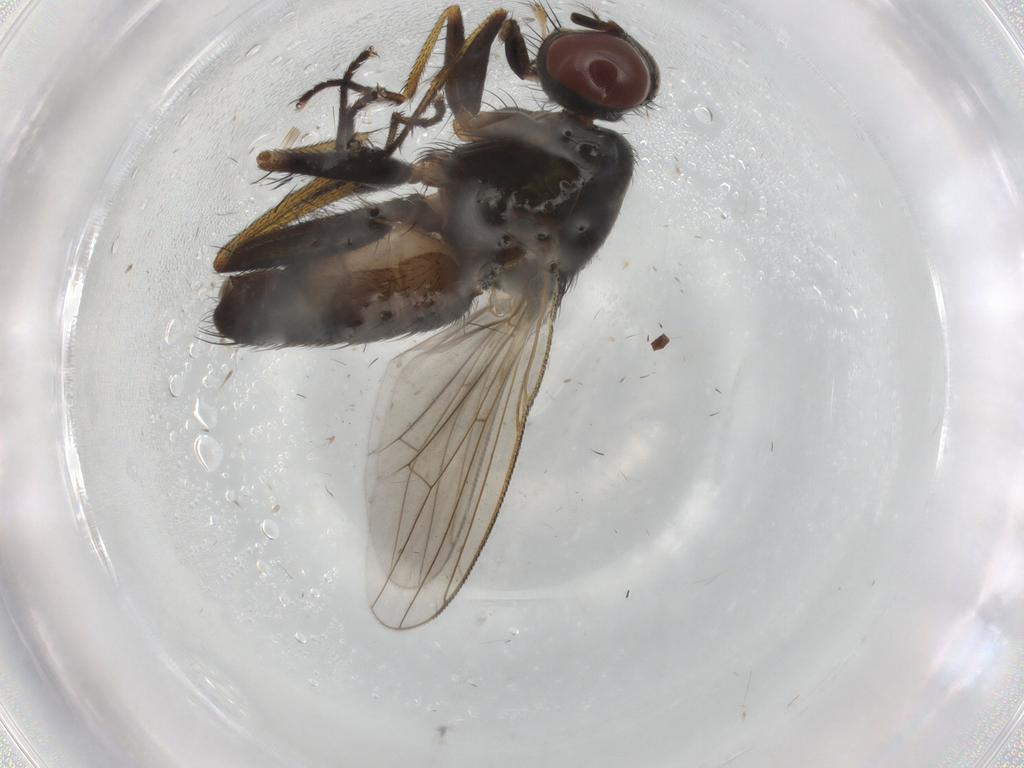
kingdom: Animalia
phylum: Arthropoda
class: Insecta
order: Diptera
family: Muscidae
